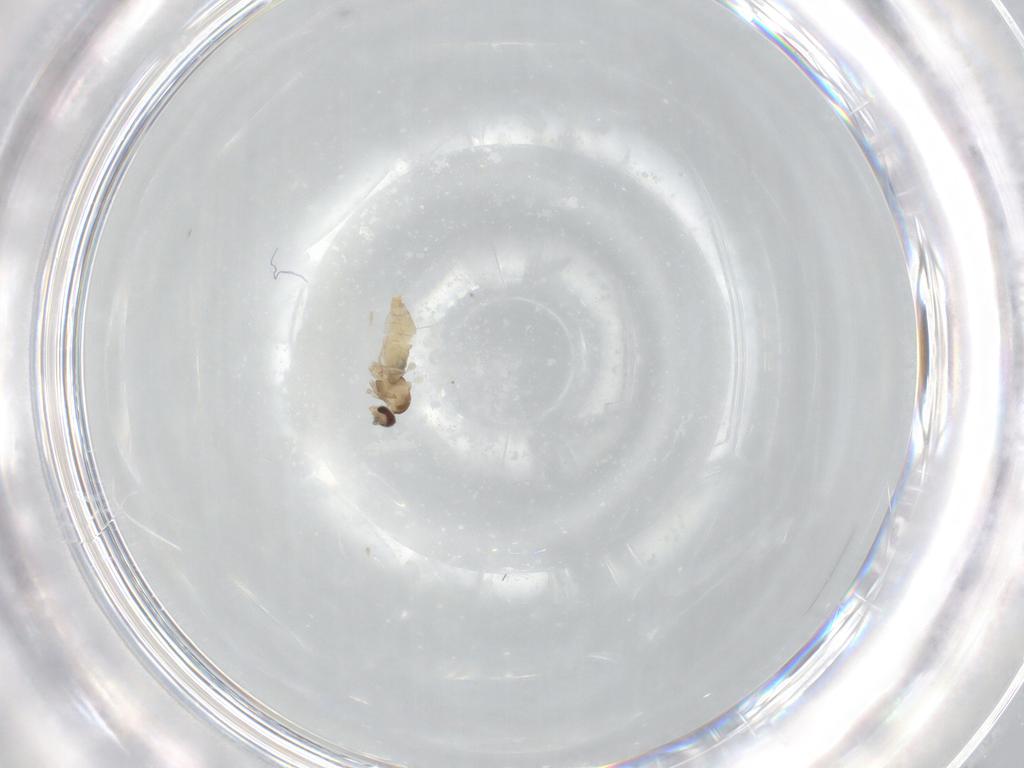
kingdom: Animalia
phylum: Arthropoda
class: Insecta
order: Diptera
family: Cecidomyiidae
